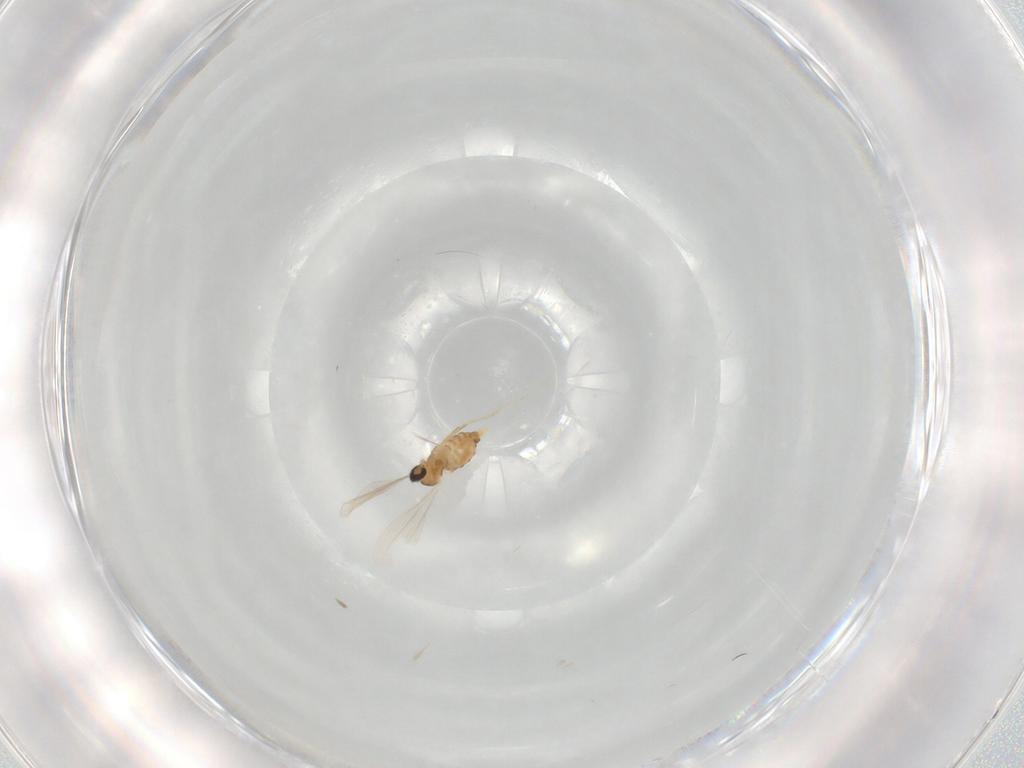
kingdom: Animalia
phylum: Arthropoda
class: Insecta
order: Diptera
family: Cecidomyiidae
